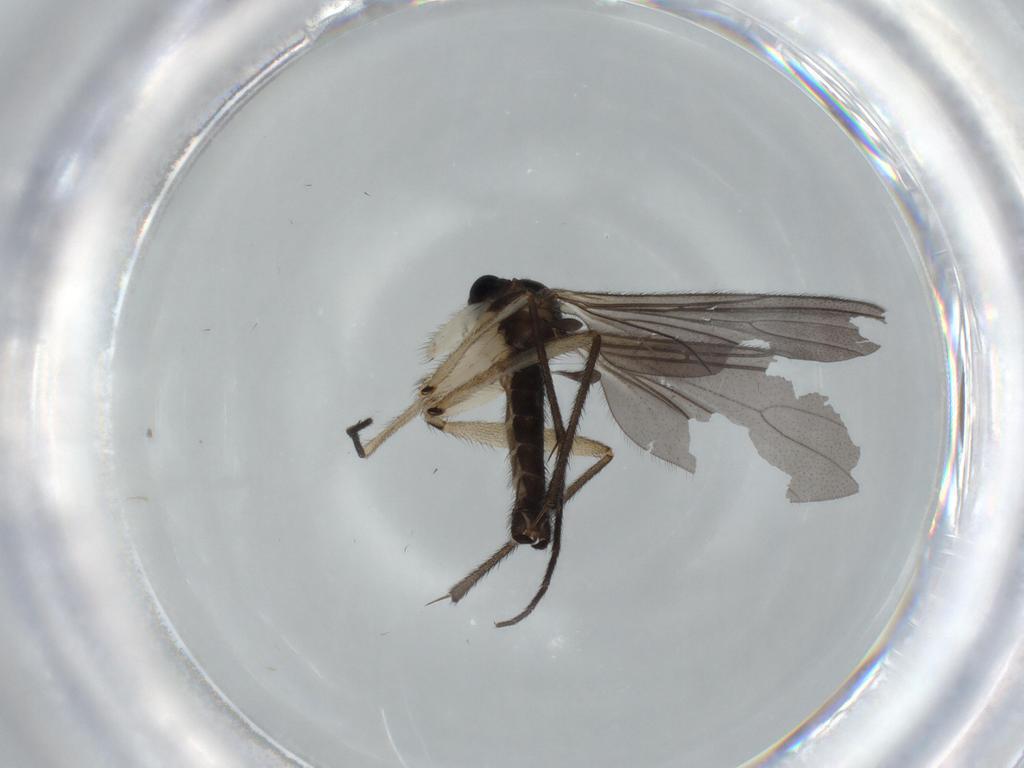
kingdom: Animalia
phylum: Arthropoda
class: Insecta
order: Diptera
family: Sciaridae
